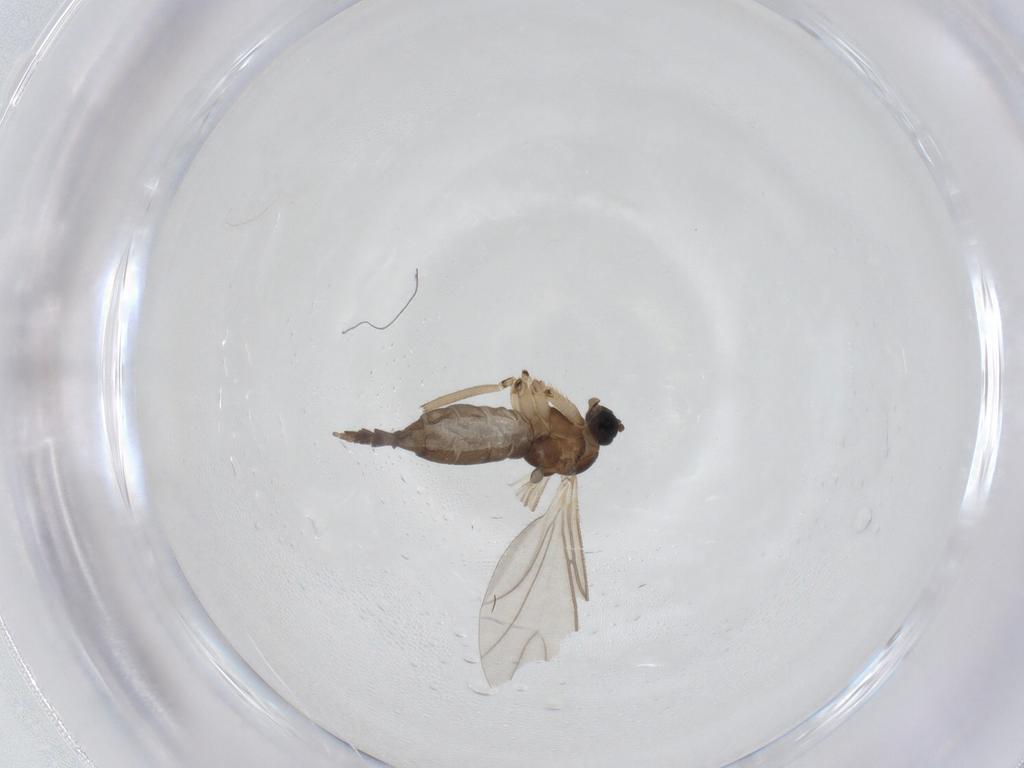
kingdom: Animalia
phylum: Arthropoda
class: Insecta
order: Diptera
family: Sciaridae
